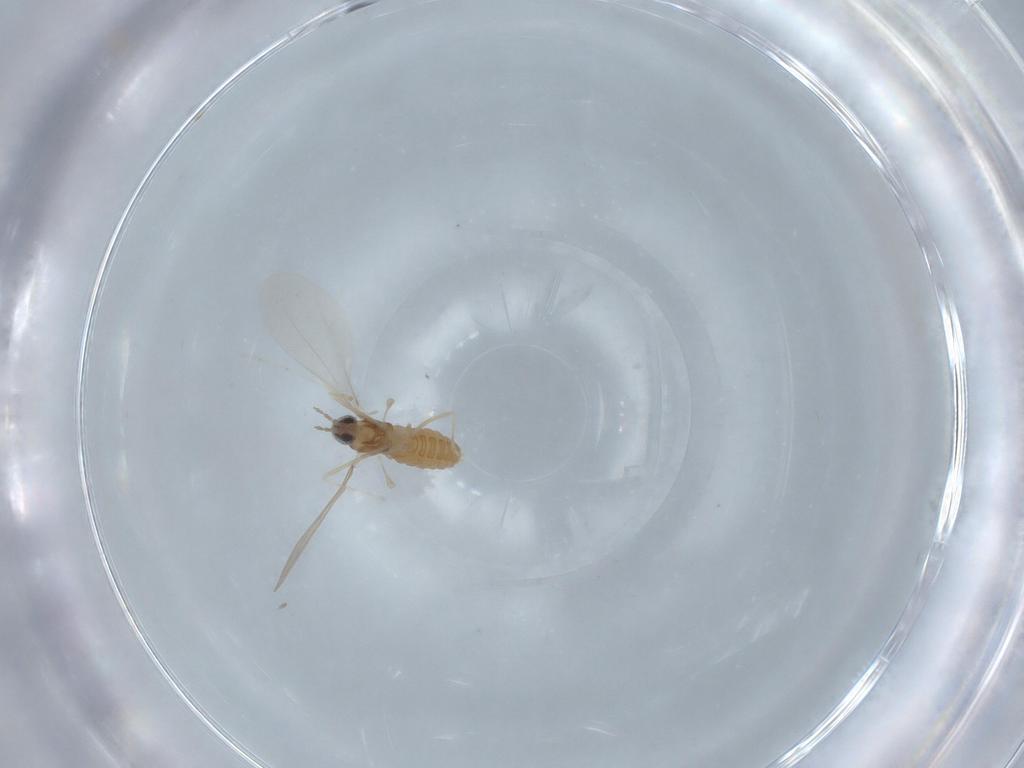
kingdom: Animalia
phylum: Arthropoda
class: Insecta
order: Diptera
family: Cecidomyiidae
